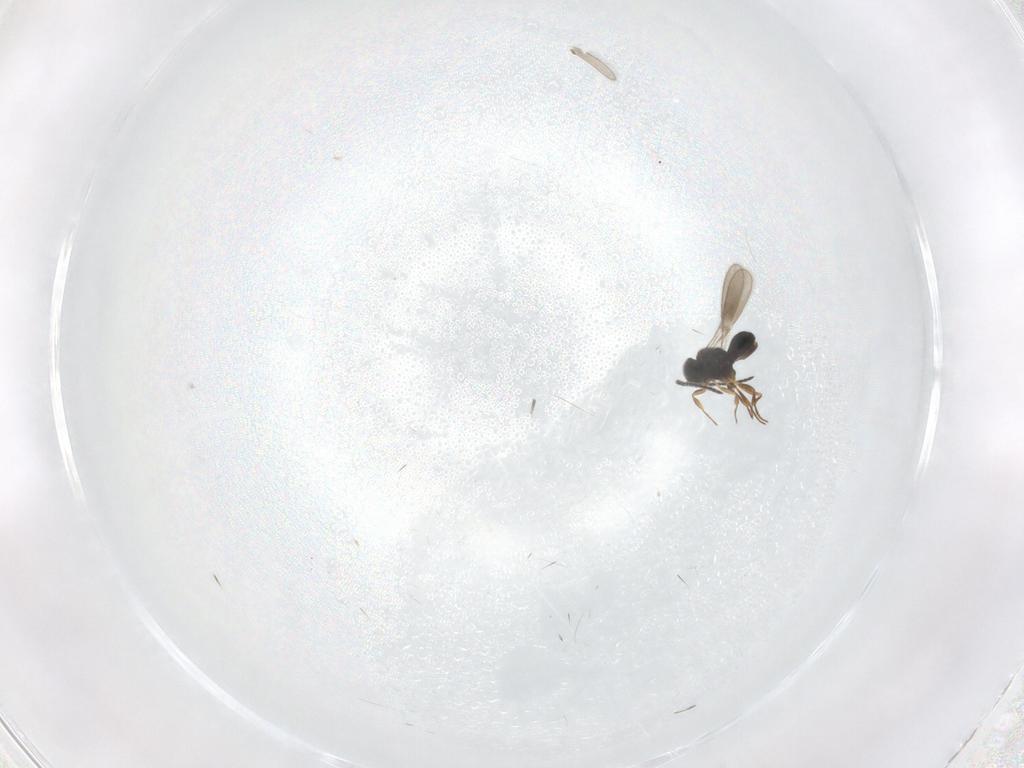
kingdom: Animalia
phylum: Arthropoda
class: Insecta
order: Hymenoptera
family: Scelionidae
